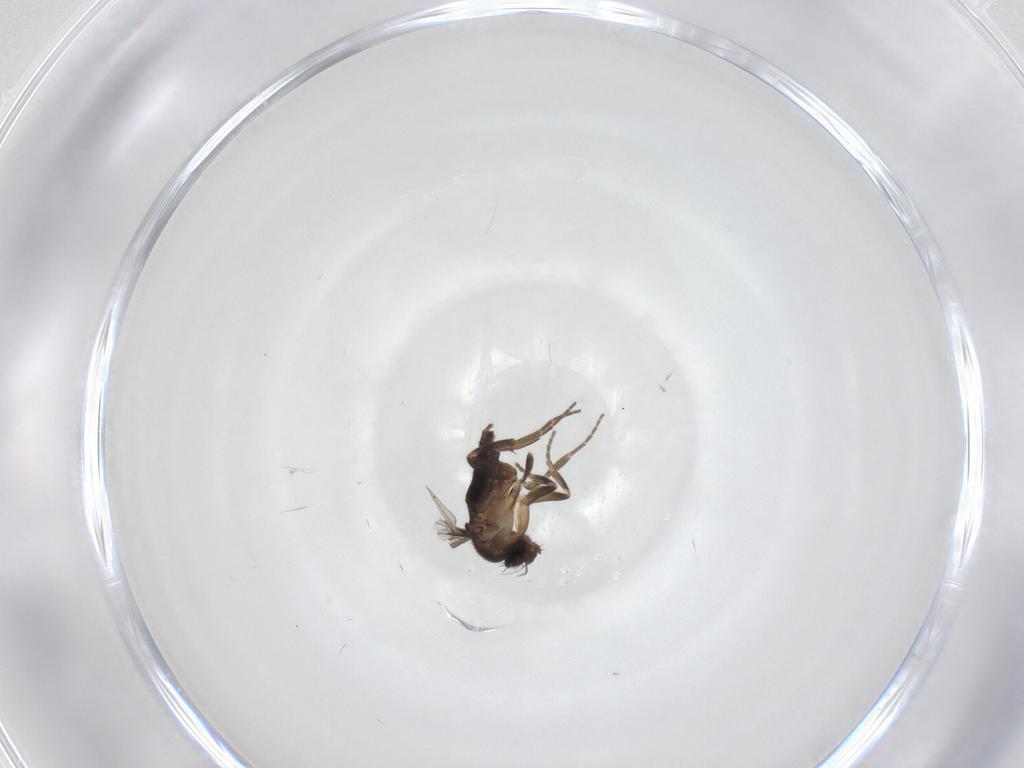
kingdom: Animalia
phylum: Arthropoda
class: Insecta
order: Diptera
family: Phoridae
